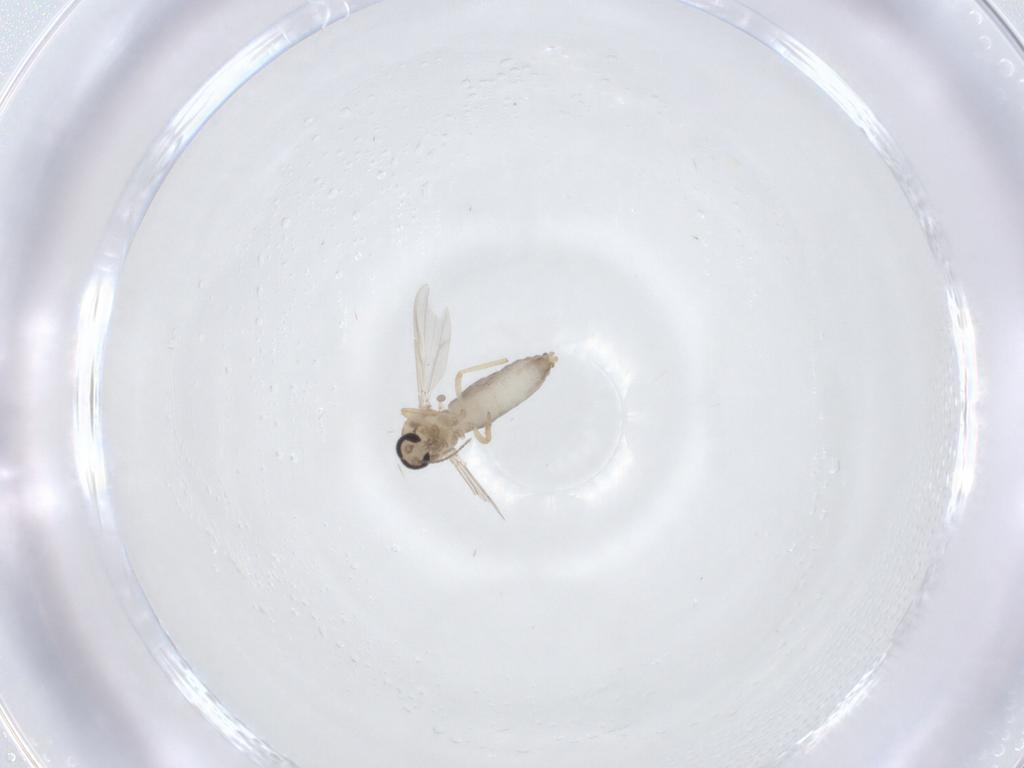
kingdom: Animalia
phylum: Arthropoda
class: Insecta
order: Diptera
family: Ceratopogonidae
